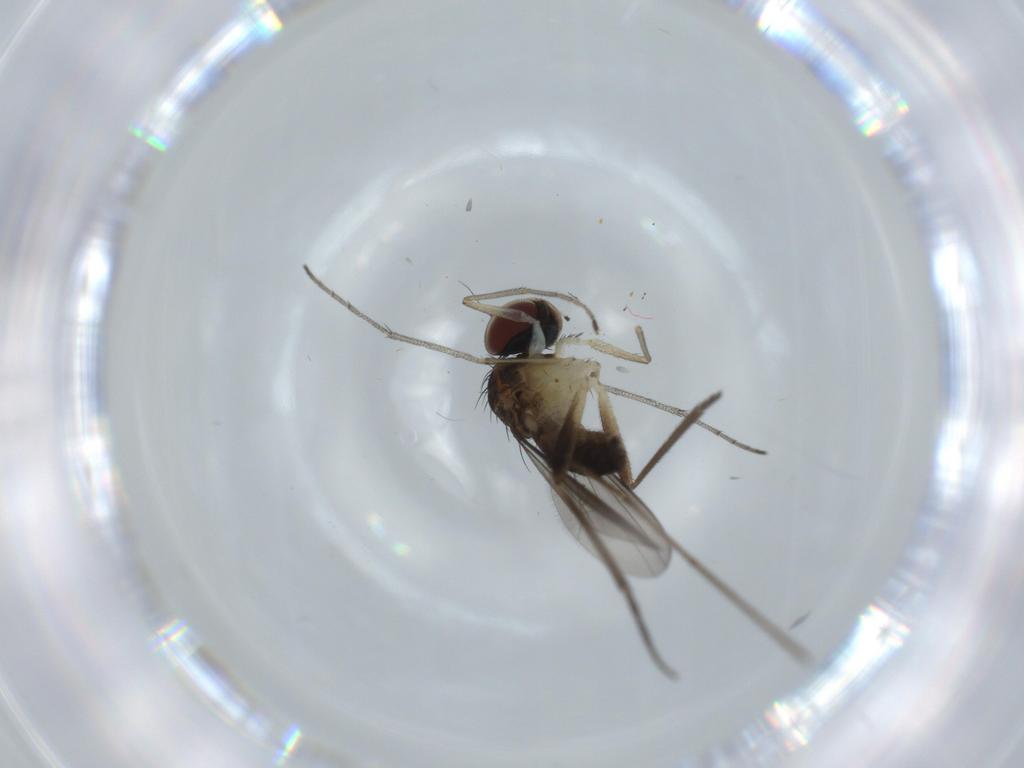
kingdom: Animalia
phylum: Arthropoda
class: Insecta
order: Diptera
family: Dolichopodidae
